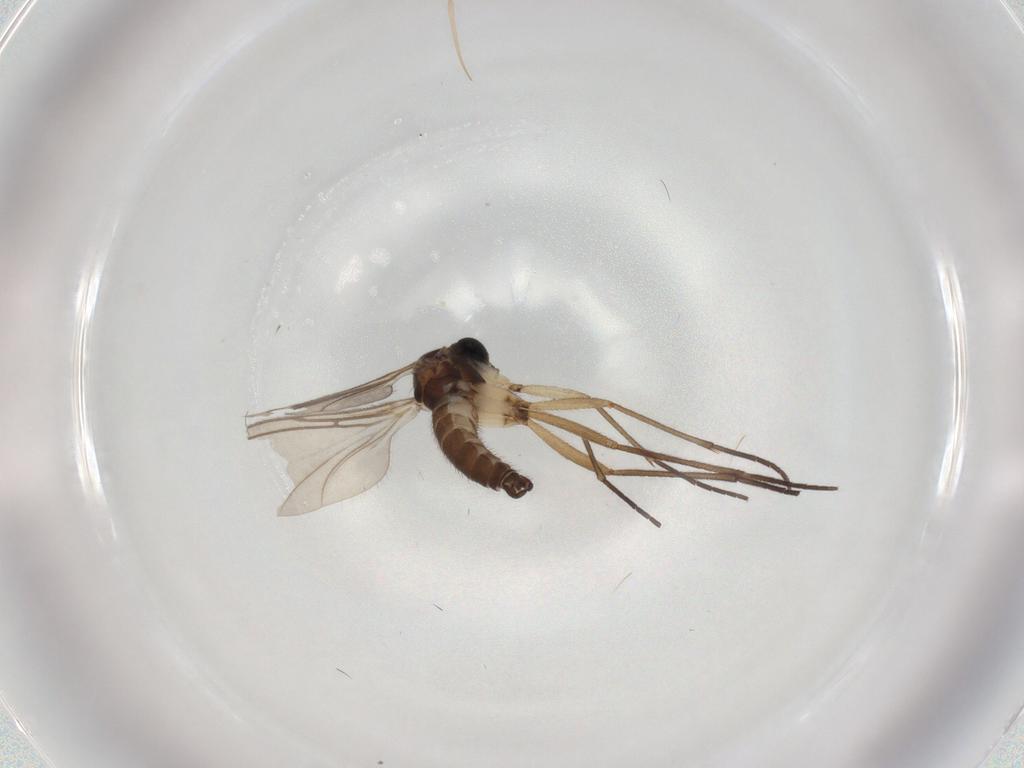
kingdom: Animalia
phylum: Arthropoda
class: Insecta
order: Diptera
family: Sciaridae
